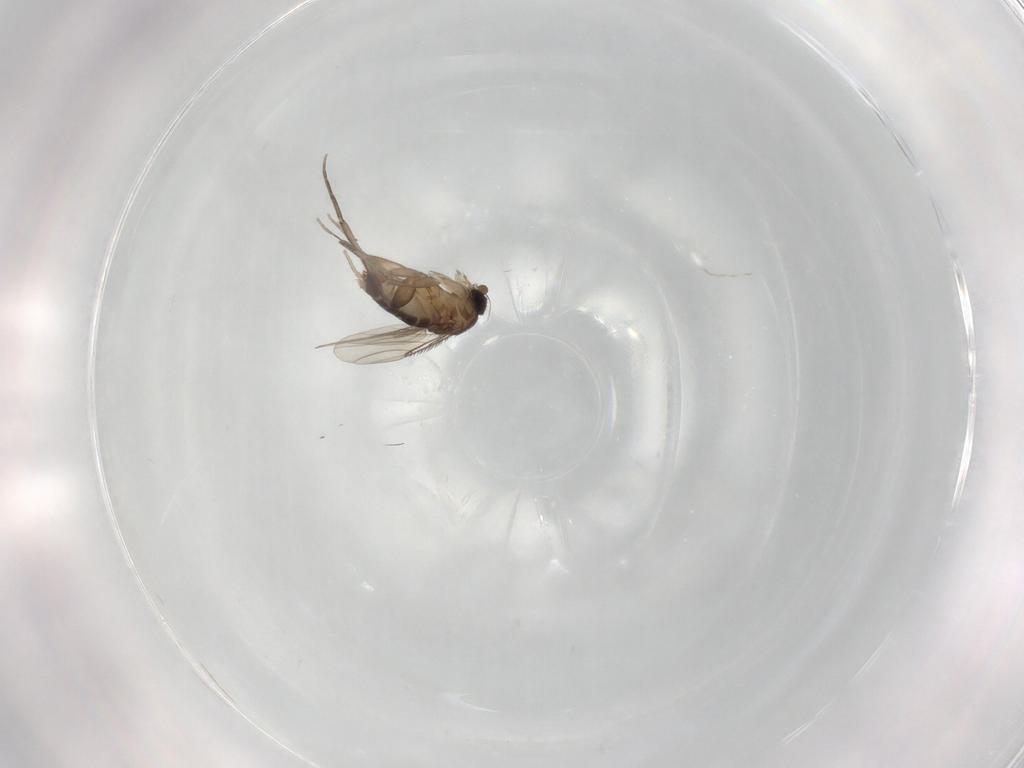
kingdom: Animalia
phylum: Arthropoda
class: Insecta
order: Diptera
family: Phoridae
